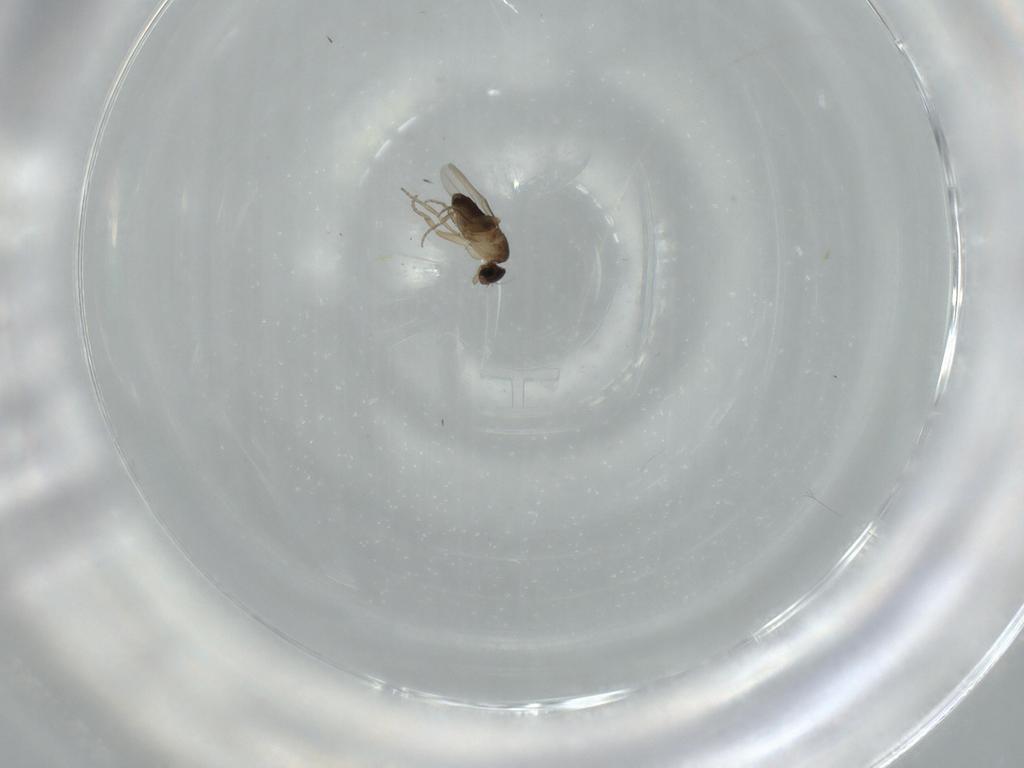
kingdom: Animalia
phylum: Arthropoda
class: Insecta
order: Diptera
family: Phoridae
